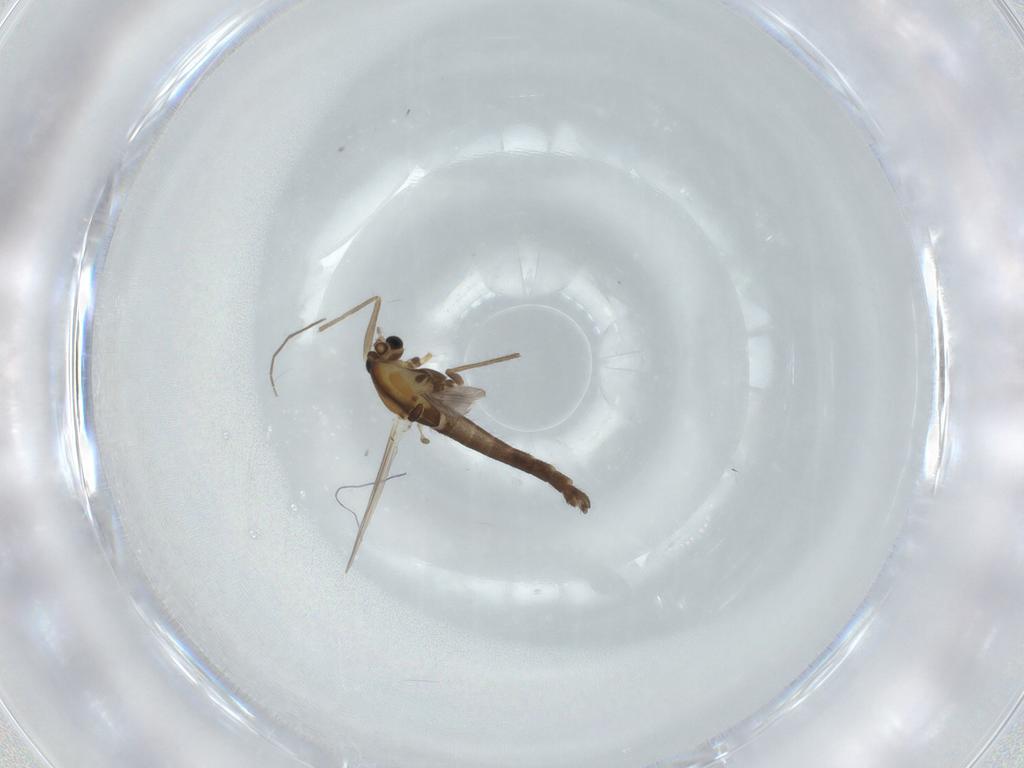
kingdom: Animalia
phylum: Arthropoda
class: Insecta
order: Diptera
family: Chironomidae
